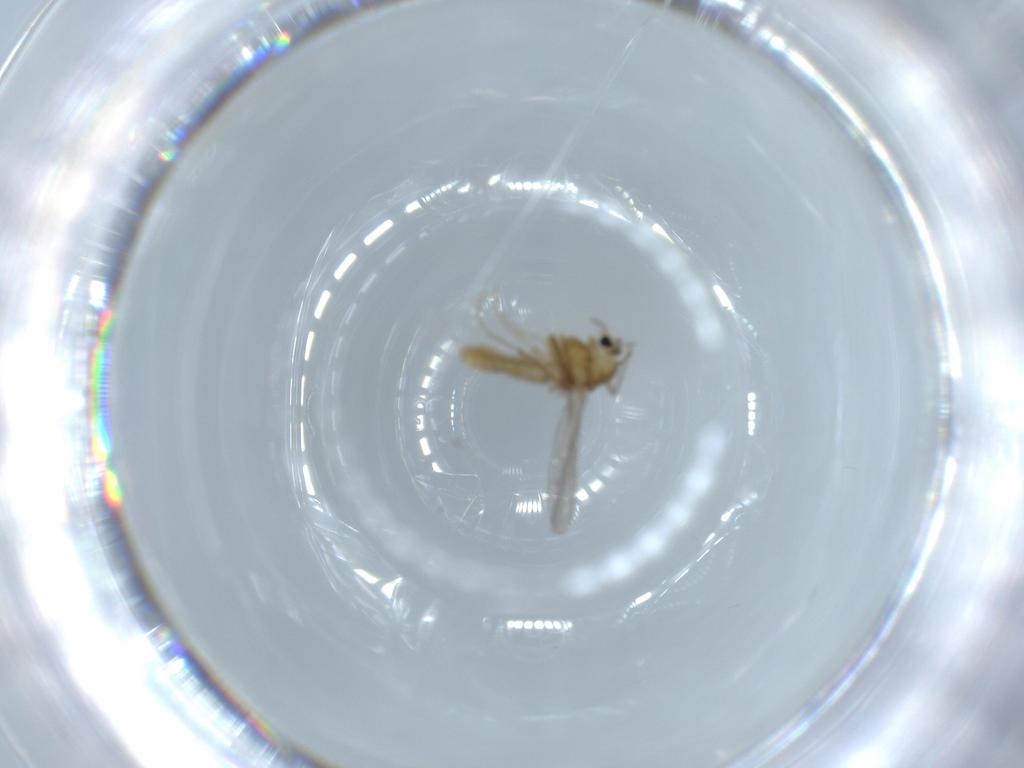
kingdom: Animalia
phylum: Arthropoda
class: Insecta
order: Diptera
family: Chironomidae
